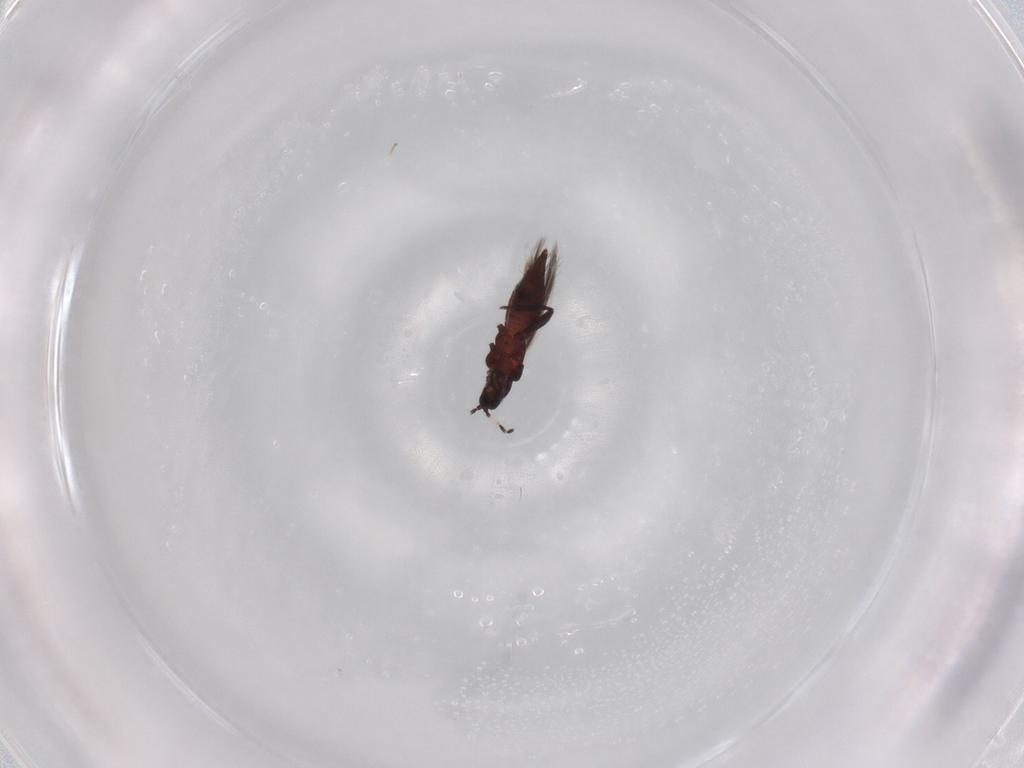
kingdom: Animalia
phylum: Arthropoda
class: Insecta
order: Thysanoptera
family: Aeolothripidae
